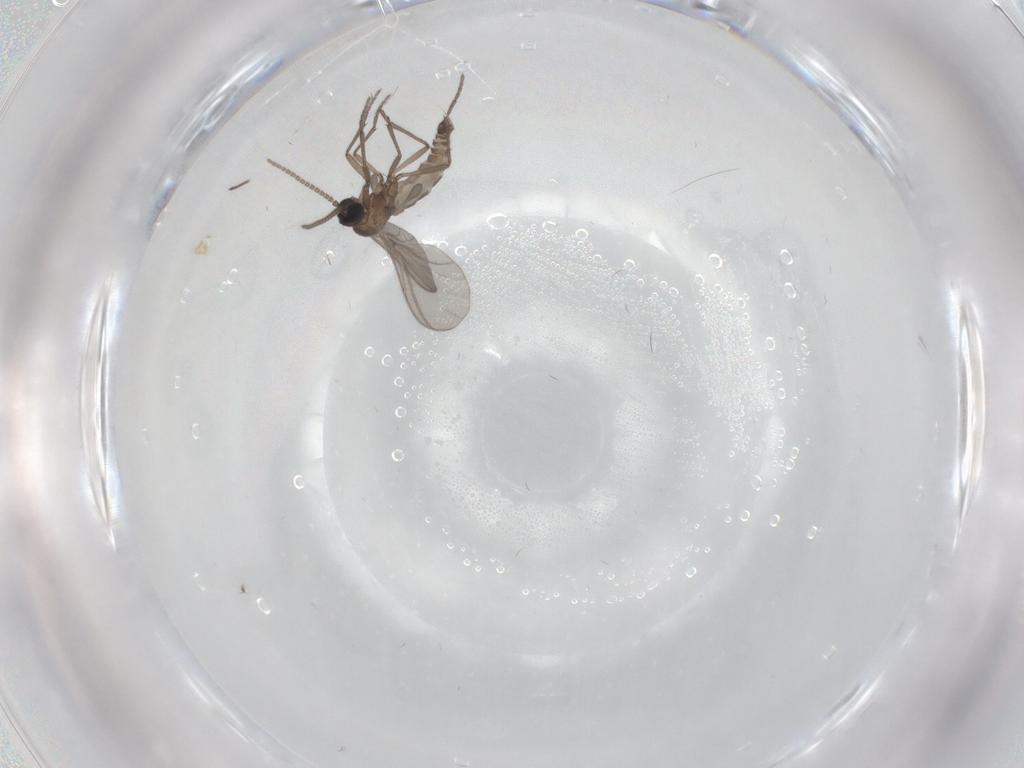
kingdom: Animalia
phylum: Arthropoda
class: Insecta
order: Diptera
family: Sciaridae
